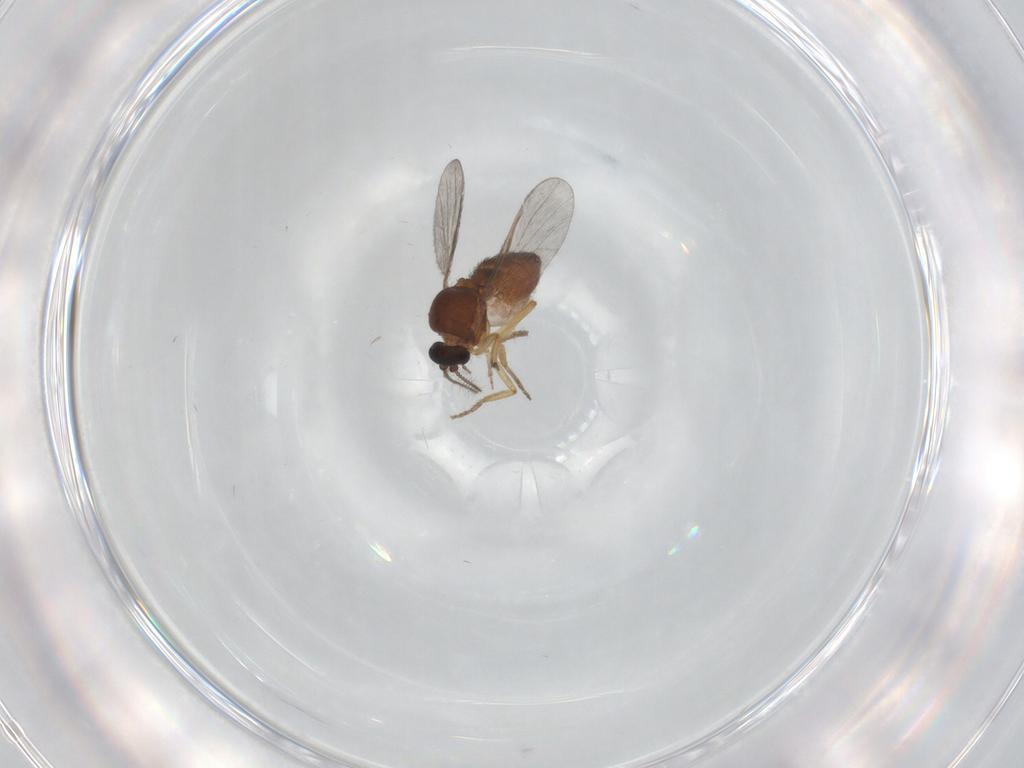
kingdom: Animalia
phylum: Arthropoda
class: Insecta
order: Diptera
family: Ceratopogonidae
